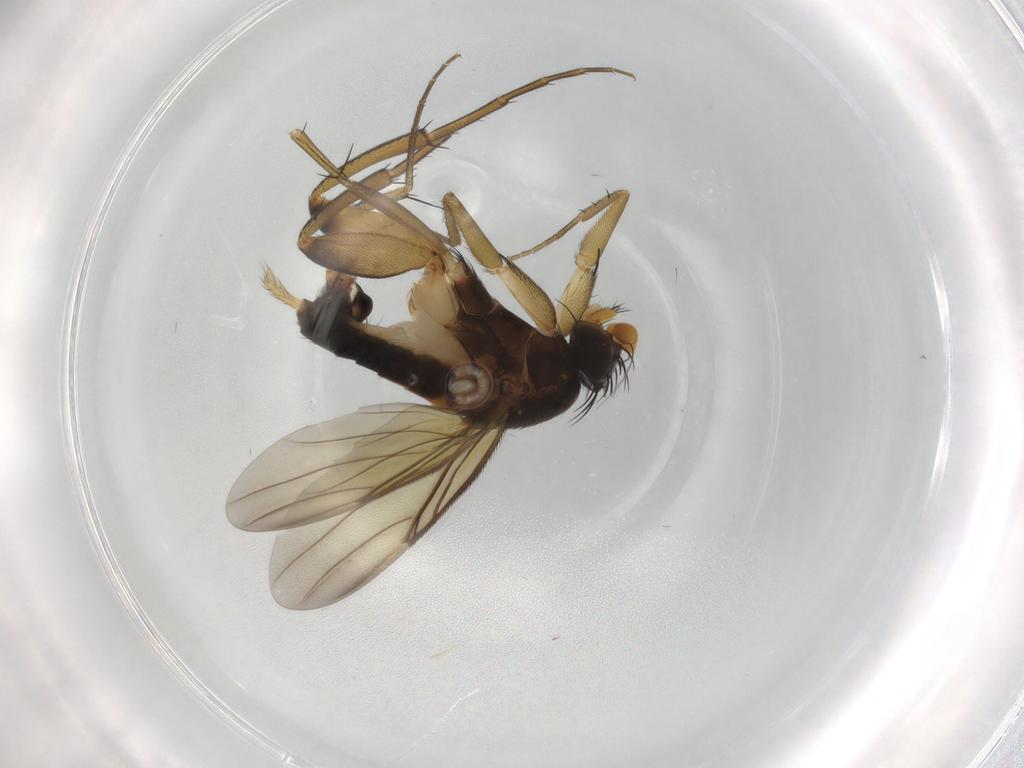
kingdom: Animalia
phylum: Arthropoda
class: Insecta
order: Diptera
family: Phoridae
